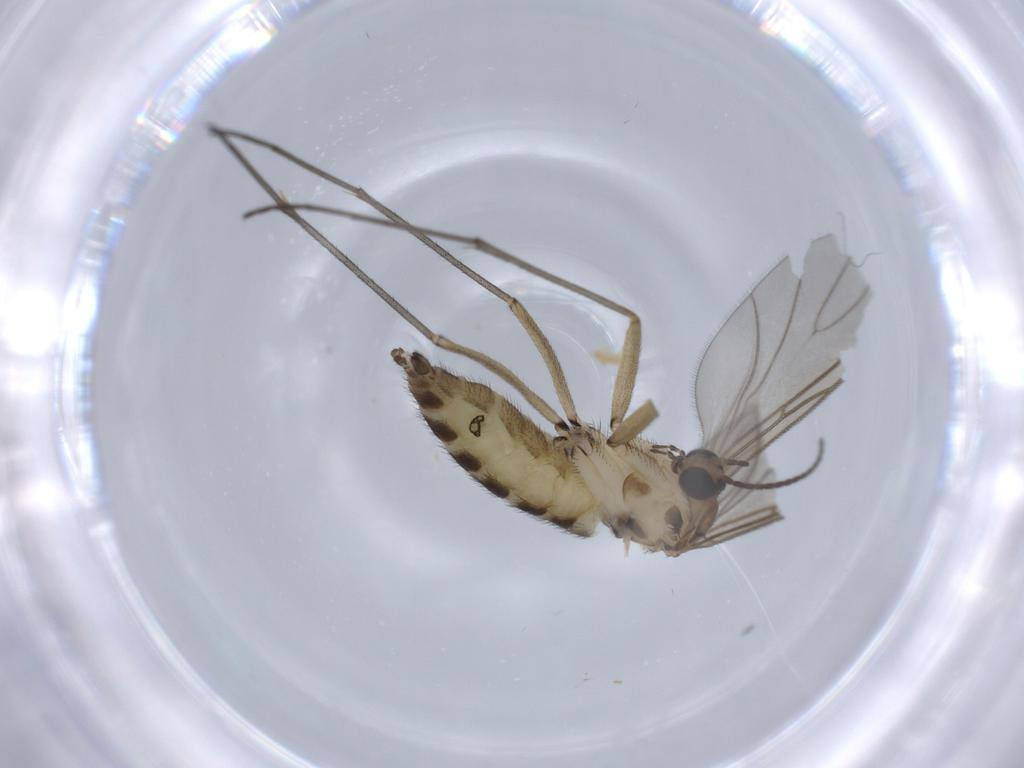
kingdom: Animalia
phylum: Arthropoda
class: Insecta
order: Diptera
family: Sciaridae
